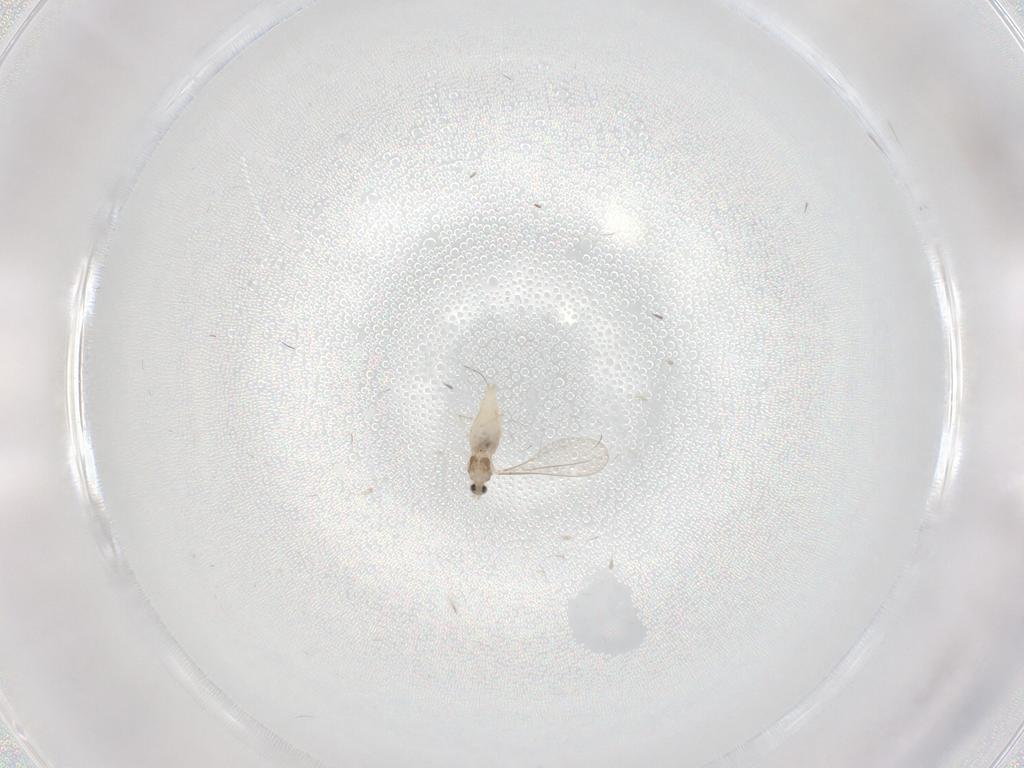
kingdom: Animalia
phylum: Arthropoda
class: Insecta
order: Diptera
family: Cecidomyiidae
